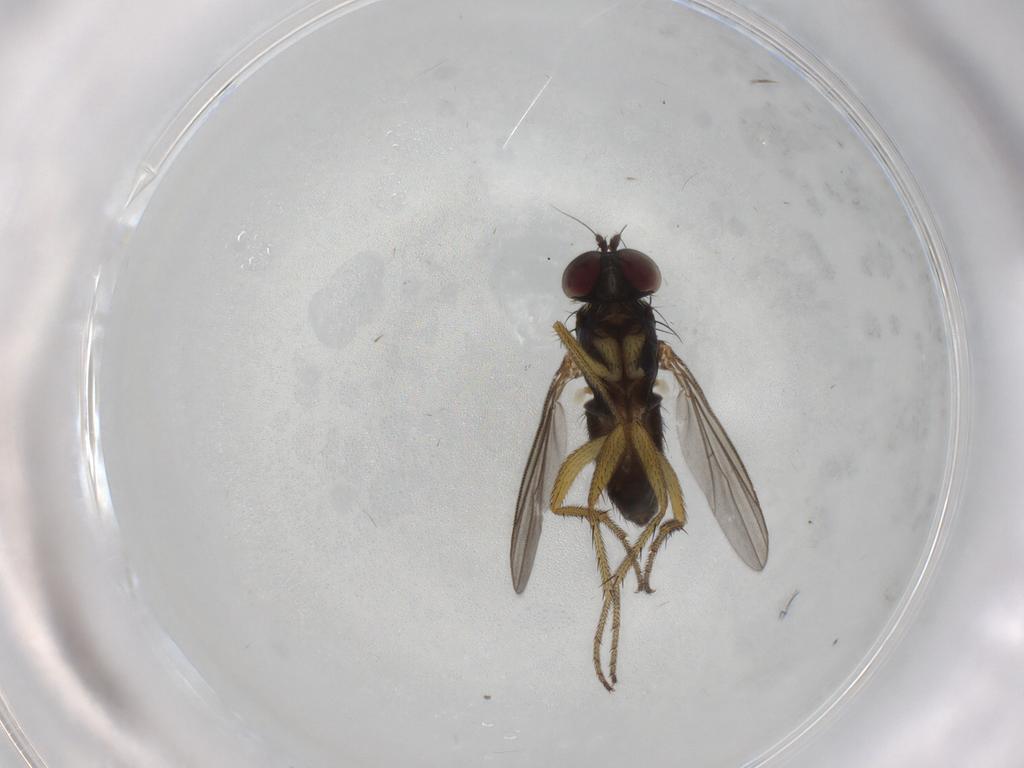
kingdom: Animalia
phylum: Arthropoda
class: Insecta
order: Diptera
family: Dolichopodidae
